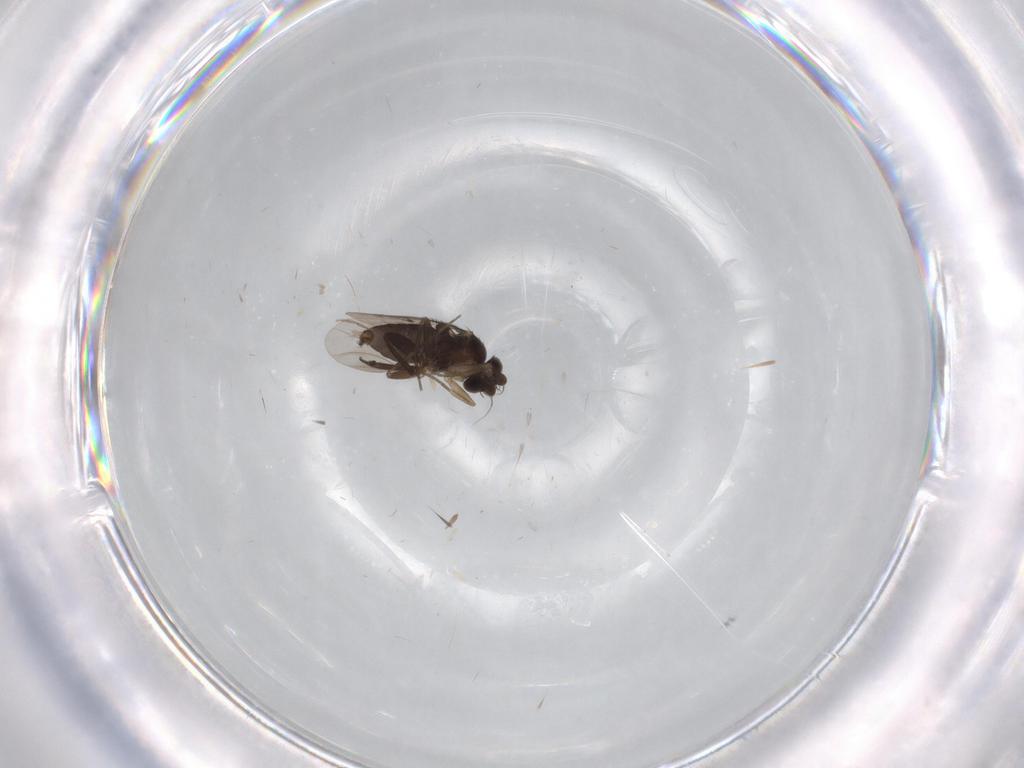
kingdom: Animalia
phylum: Arthropoda
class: Insecta
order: Diptera
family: Phoridae
